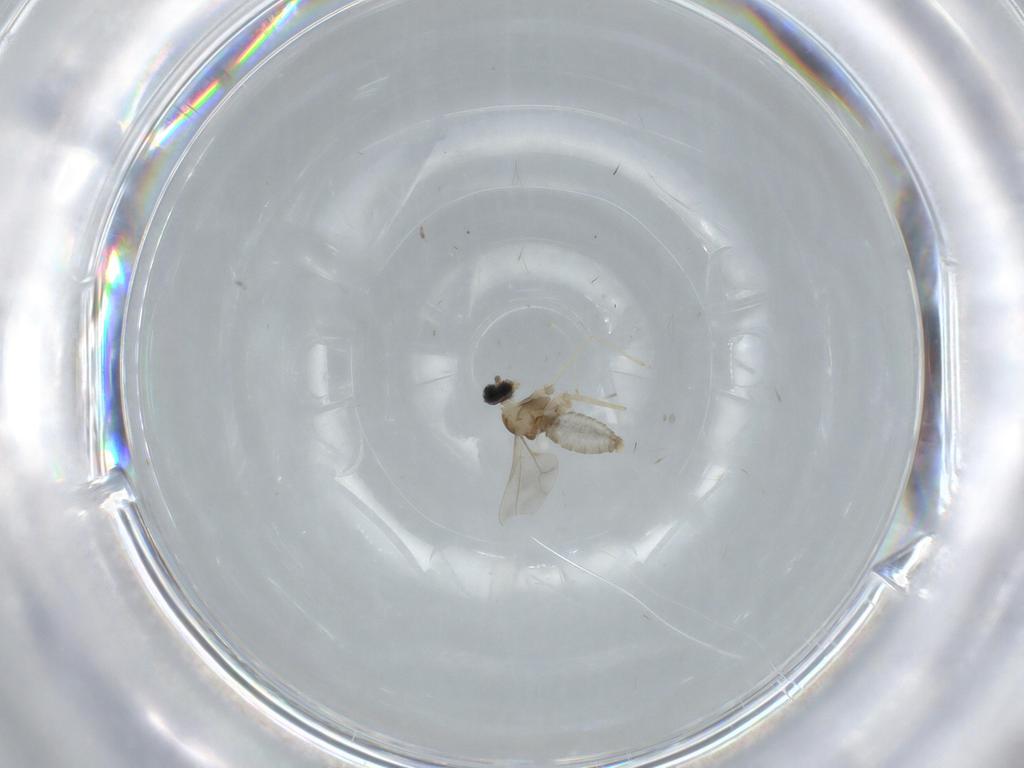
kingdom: Animalia
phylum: Arthropoda
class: Insecta
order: Diptera
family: Cecidomyiidae
